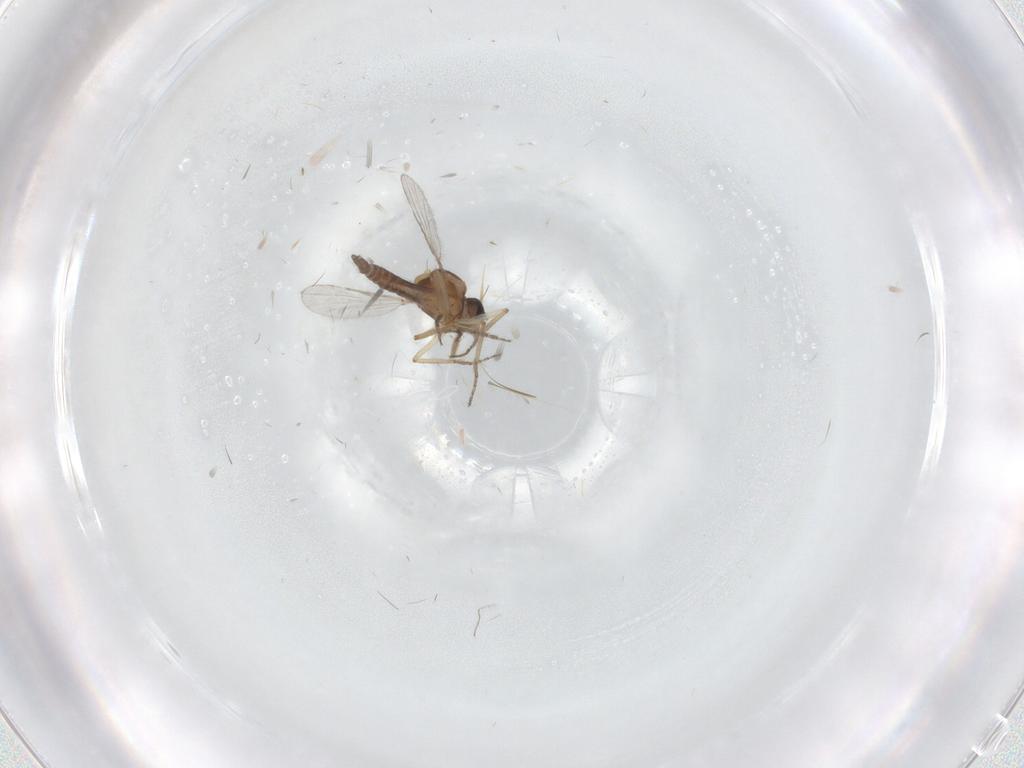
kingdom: Animalia
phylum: Arthropoda
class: Insecta
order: Diptera
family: Ceratopogonidae
